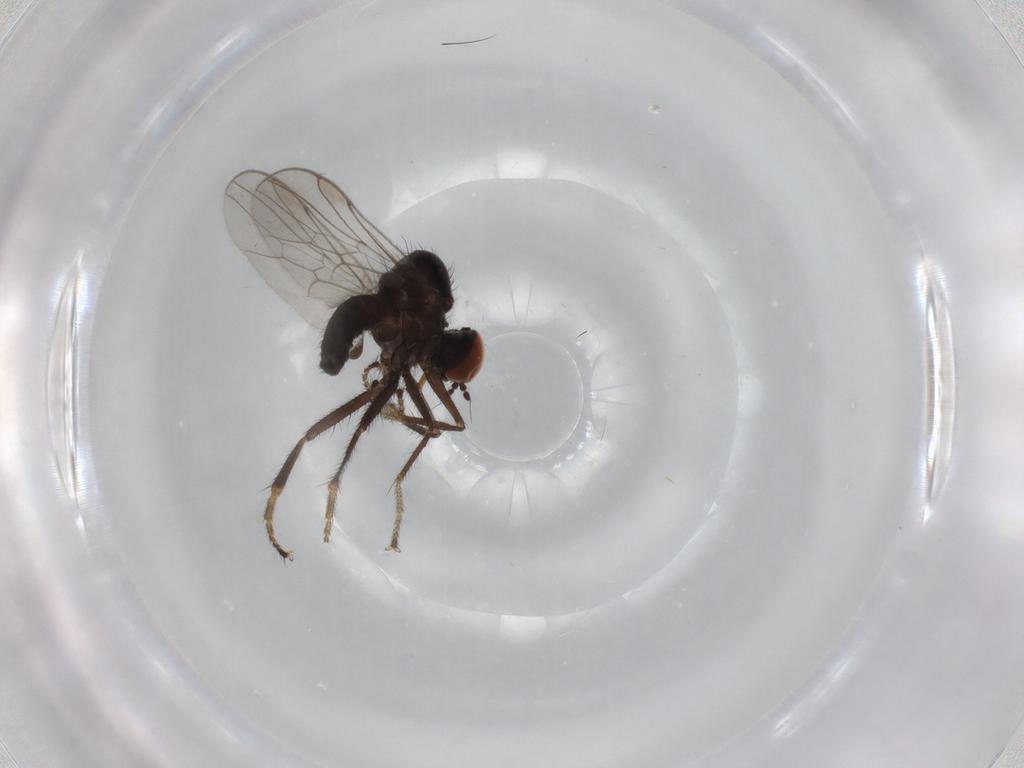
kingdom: Animalia
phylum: Arthropoda
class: Insecta
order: Diptera
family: Hybotidae
